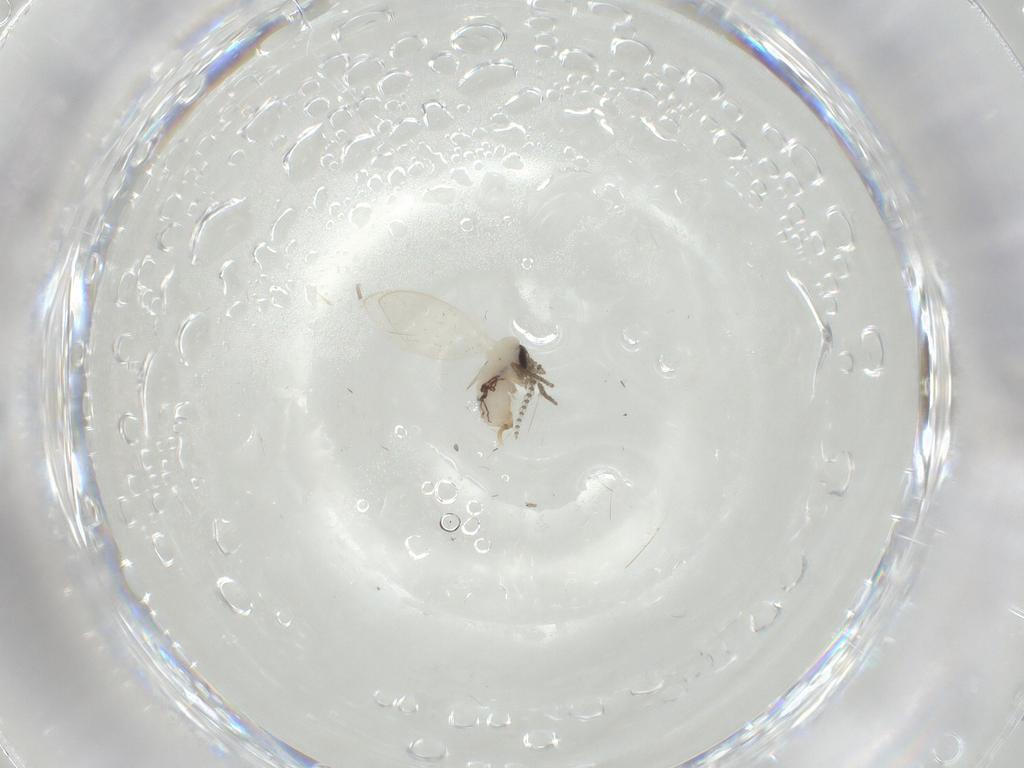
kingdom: Animalia
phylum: Arthropoda
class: Insecta
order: Diptera
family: Psychodidae
